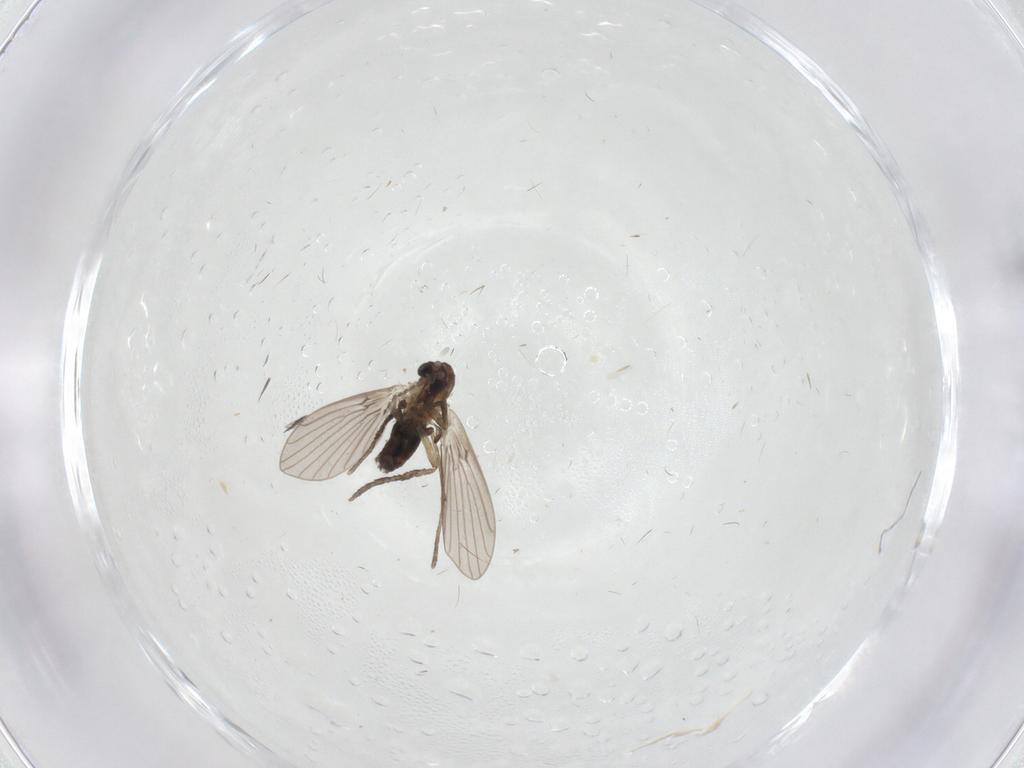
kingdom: Animalia
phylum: Arthropoda
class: Insecta
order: Diptera
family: Psychodidae
